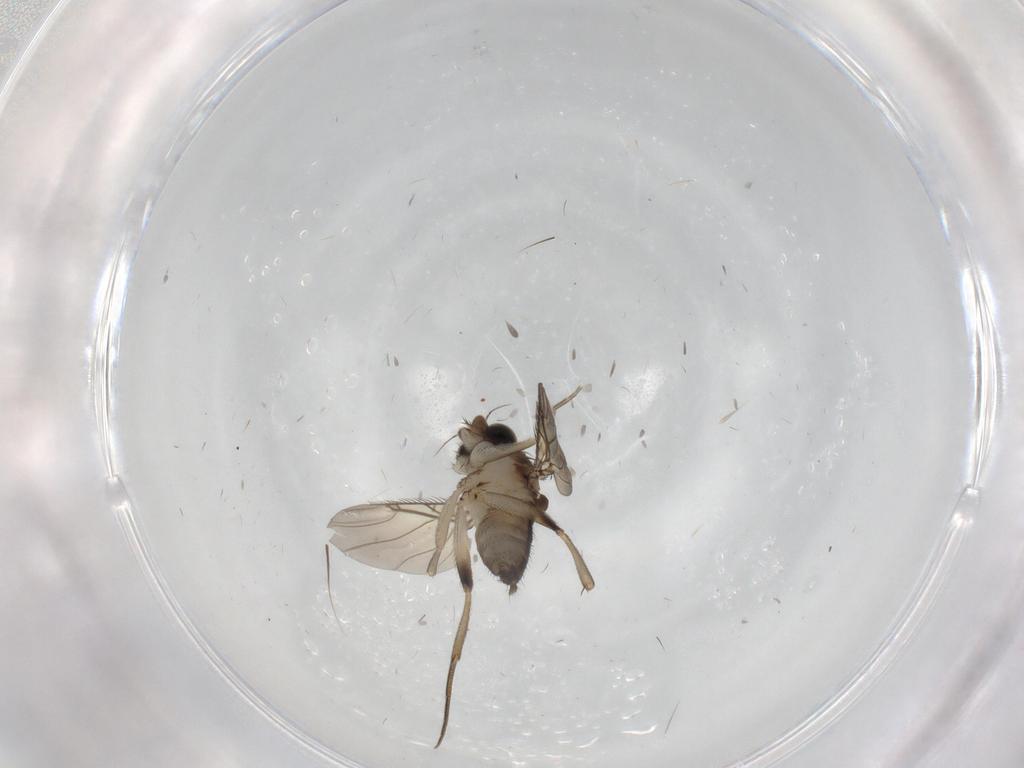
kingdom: Animalia
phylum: Arthropoda
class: Insecta
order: Diptera
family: Phoridae
